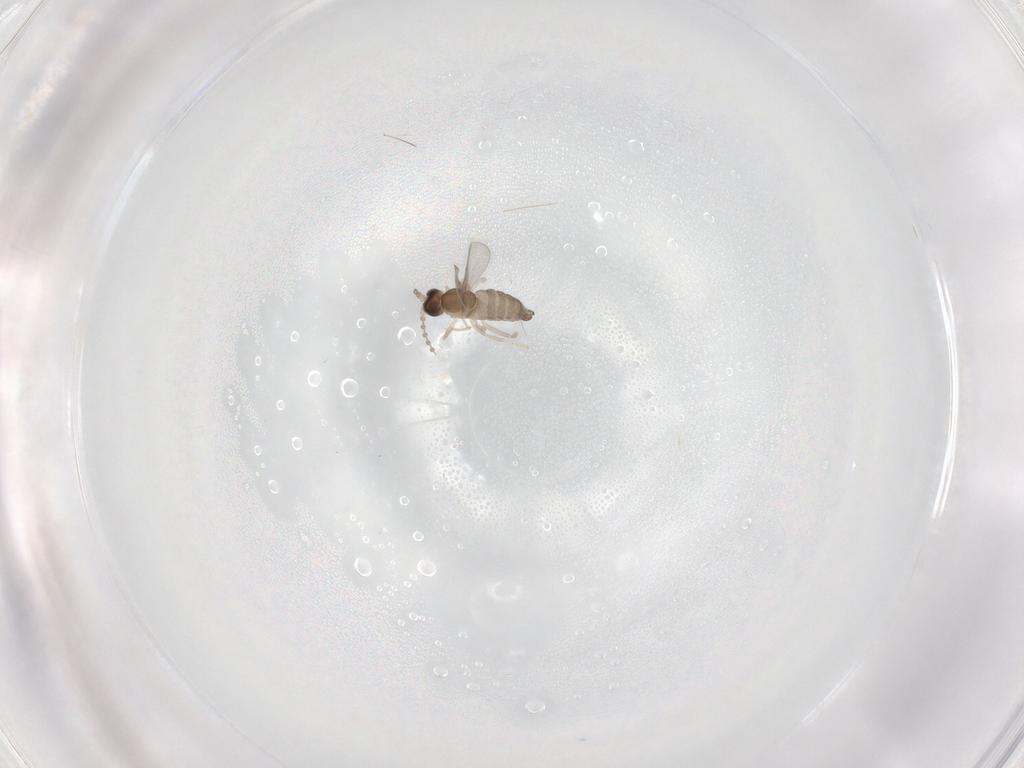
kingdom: Animalia
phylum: Arthropoda
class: Insecta
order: Diptera
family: Cecidomyiidae
